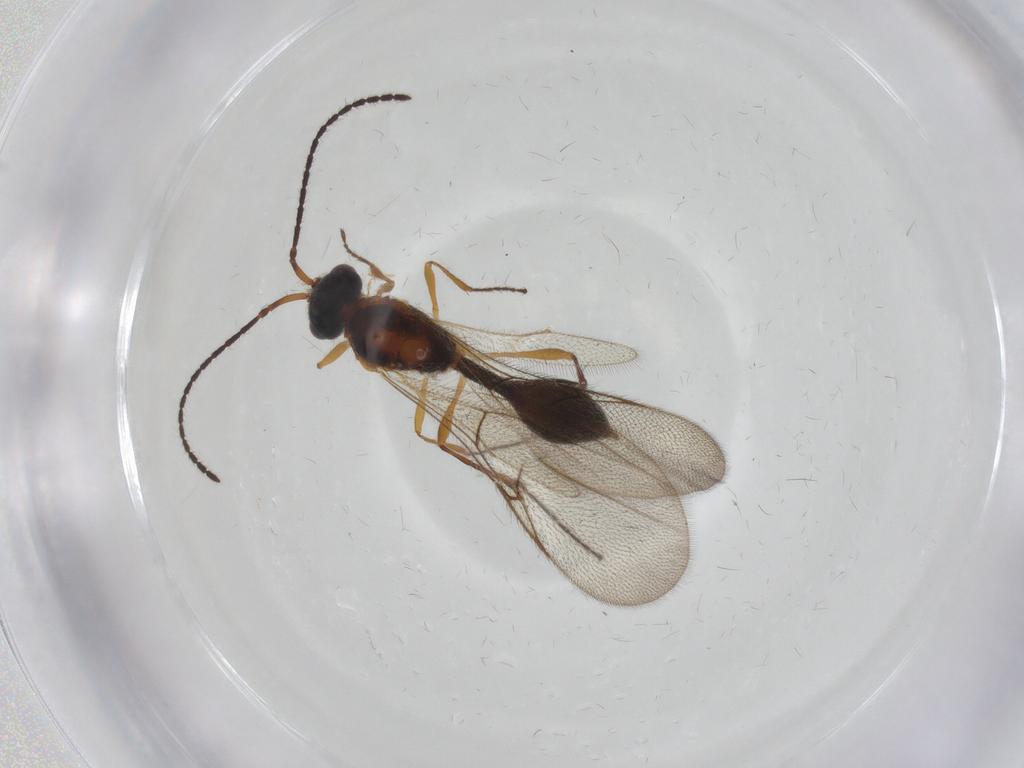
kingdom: Animalia
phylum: Arthropoda
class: Insecta
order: Hymenoptera
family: Diapriidae
